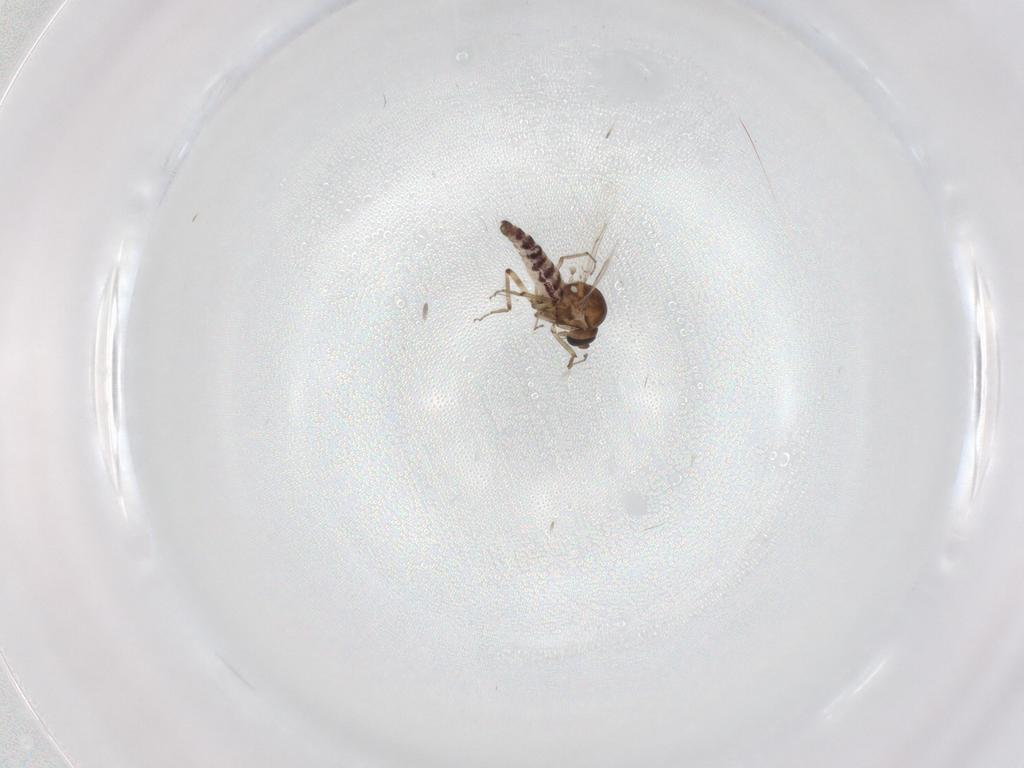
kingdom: Animalia
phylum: Arthropoda
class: Insecta
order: Diptera
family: Ceratopogonidae
